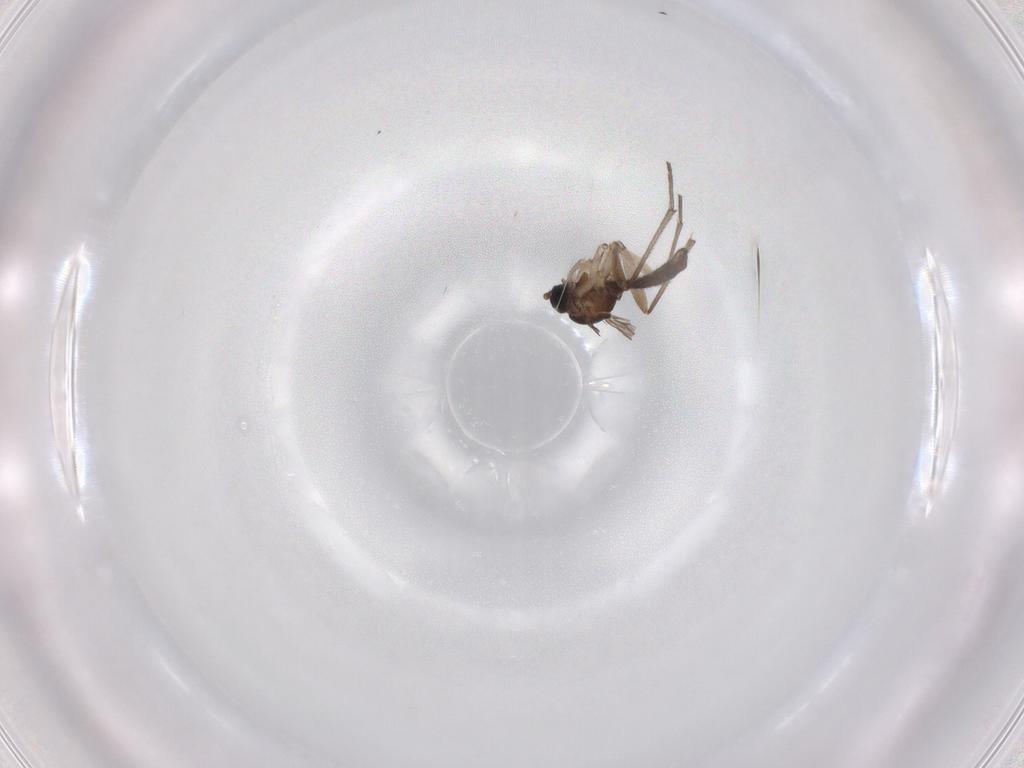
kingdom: Animalia
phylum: Arthropoda
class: Insecta
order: Diptera
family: Sciaridae
